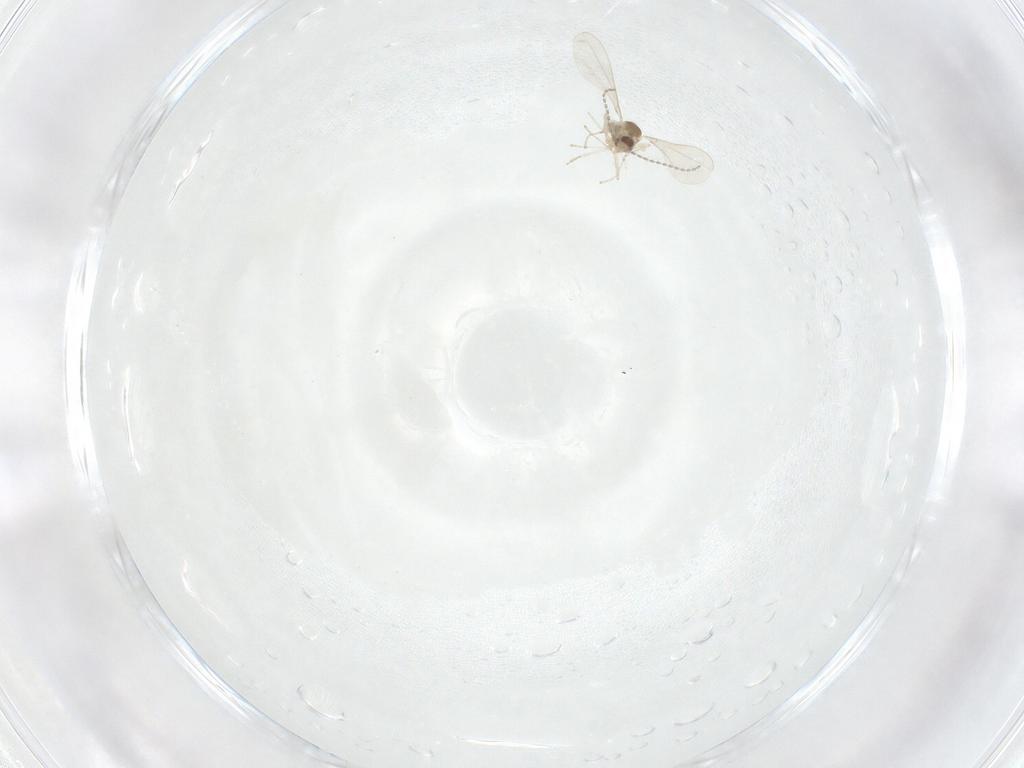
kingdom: Animalia
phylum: Arthropoda
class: Insecta
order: Diptera
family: Cecidomyiidae
